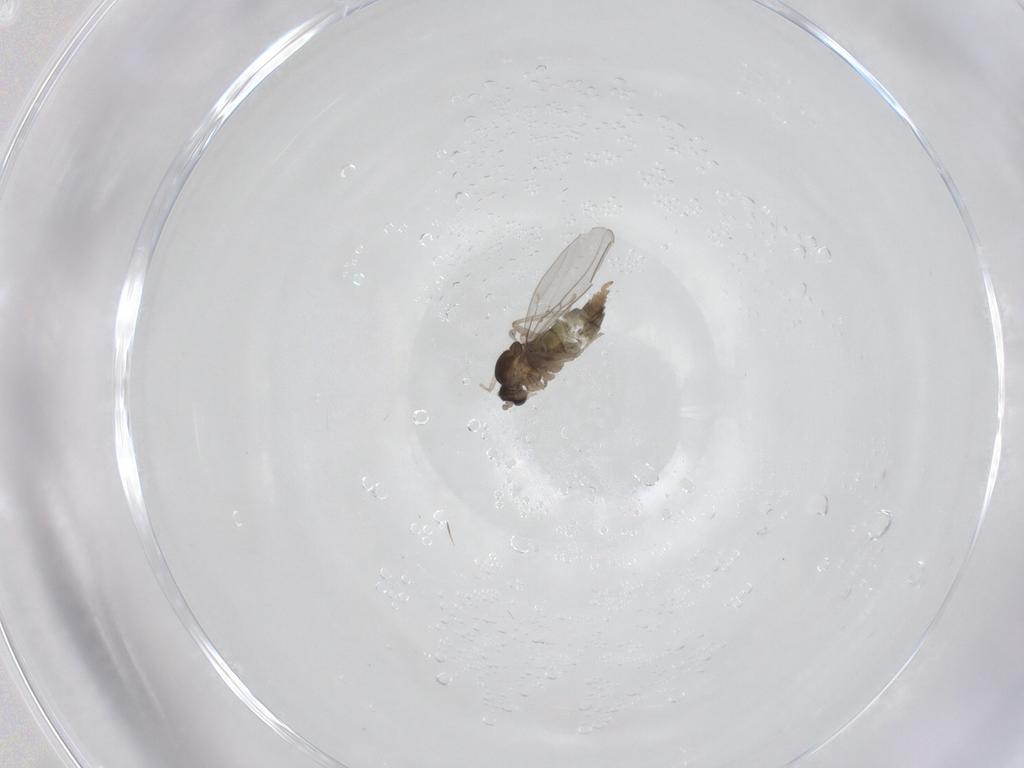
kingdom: Animalia
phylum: Arthropoda
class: Insecta
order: Diptera
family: Cecidomyiidae
